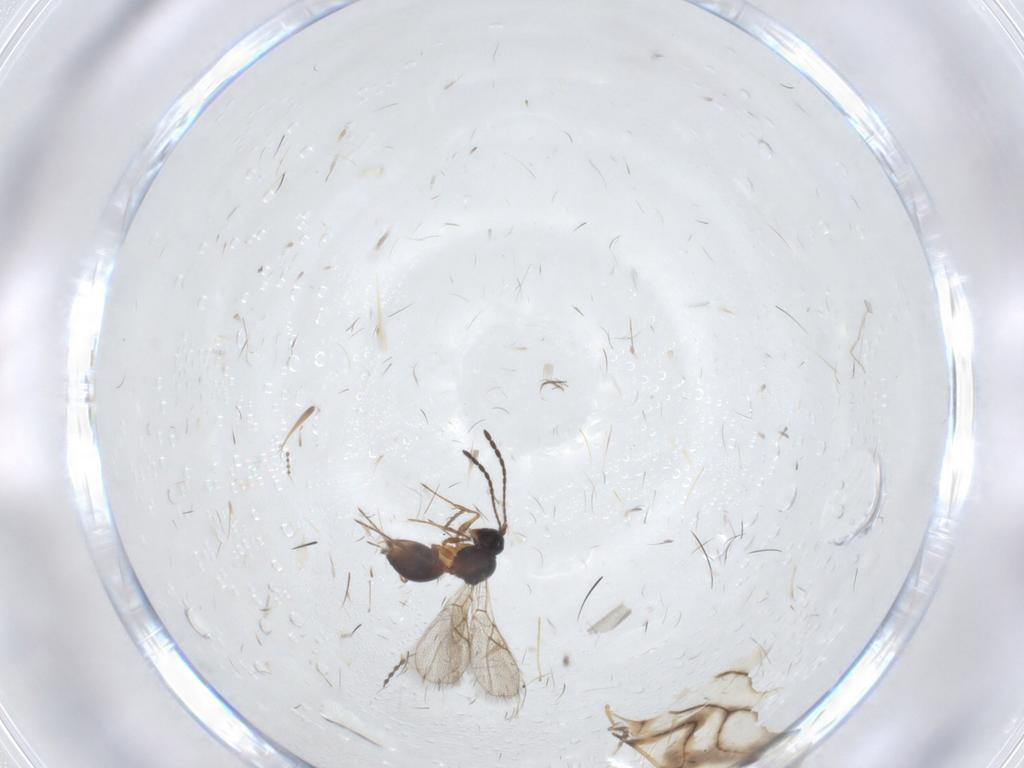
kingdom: Animalia
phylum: Arthropoda
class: Insecta
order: Hymenoptera
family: Figitidae
